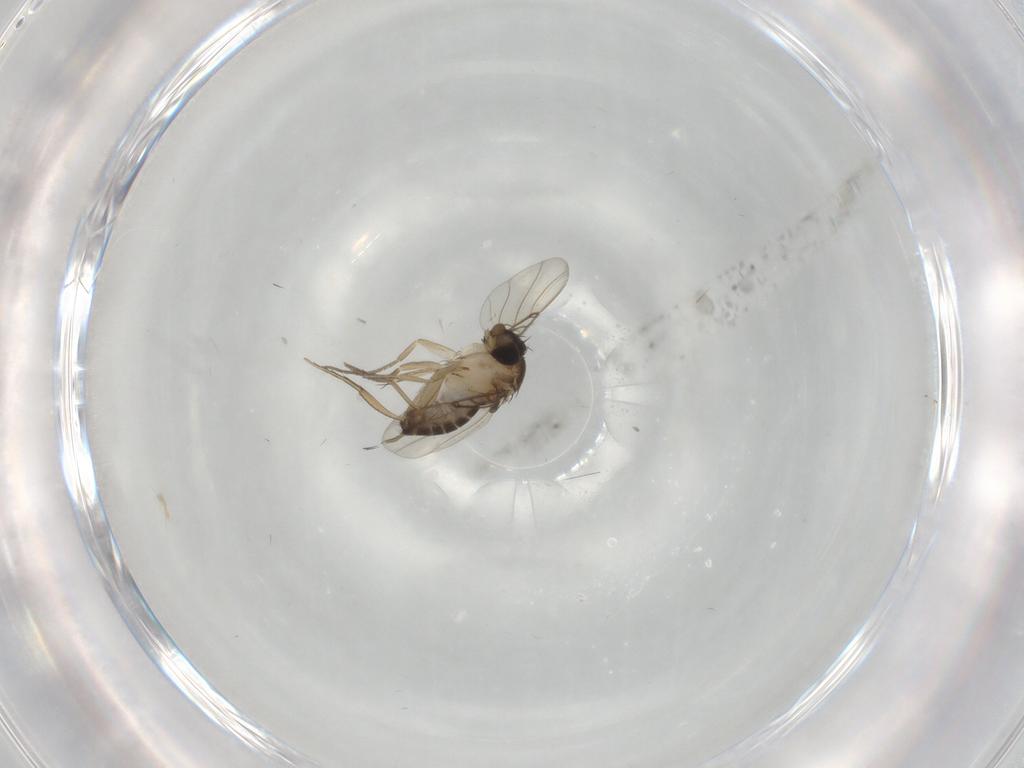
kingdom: Animalia
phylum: Arthropoda
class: Insecta
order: Diptera
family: Chironomidae
